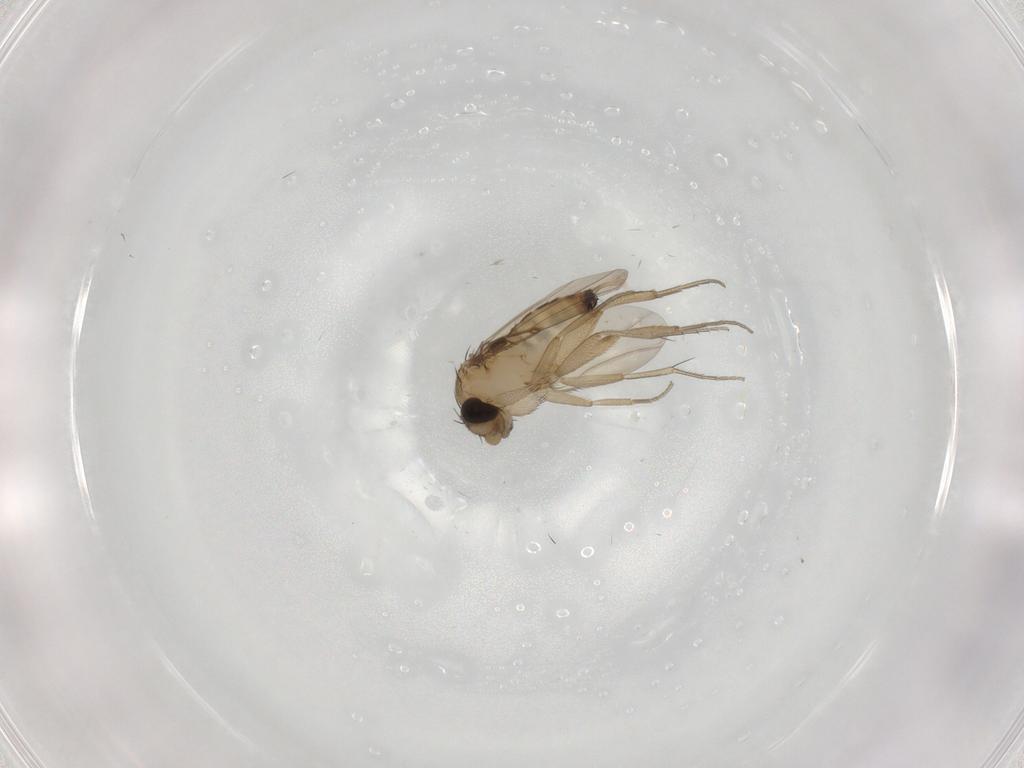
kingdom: Animalia
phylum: Arthropoda
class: Insecta
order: Diptera
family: Phoridae
